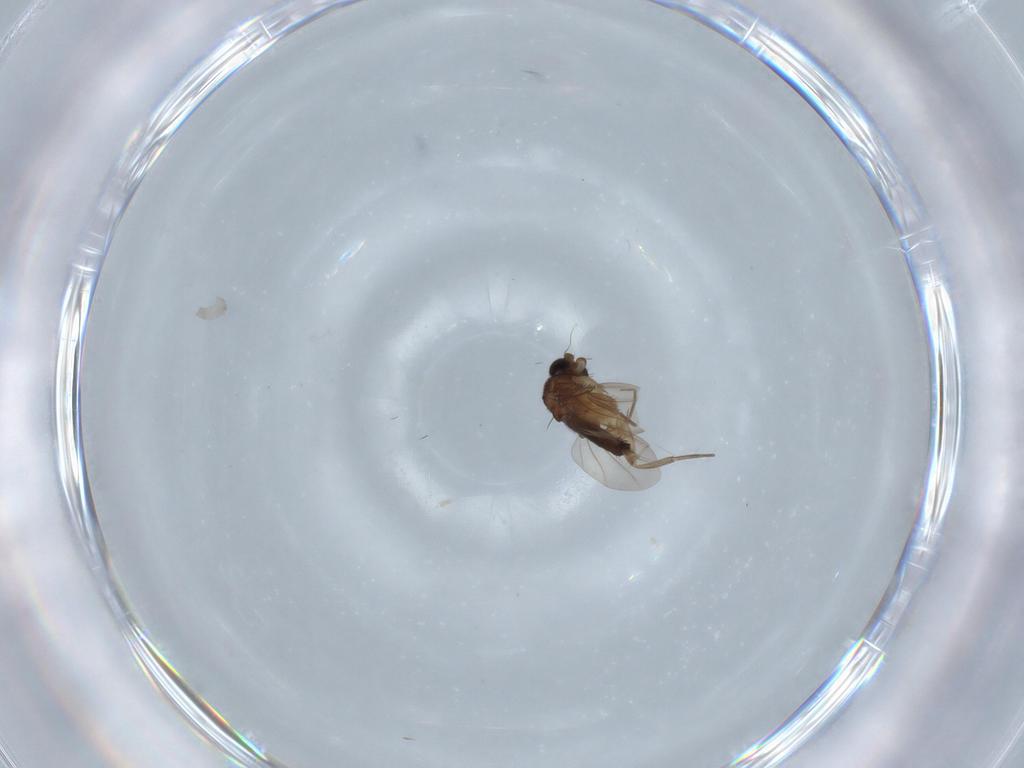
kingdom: Animalia
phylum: Arthropoda
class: Insecta
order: Diptera
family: Phoridae
